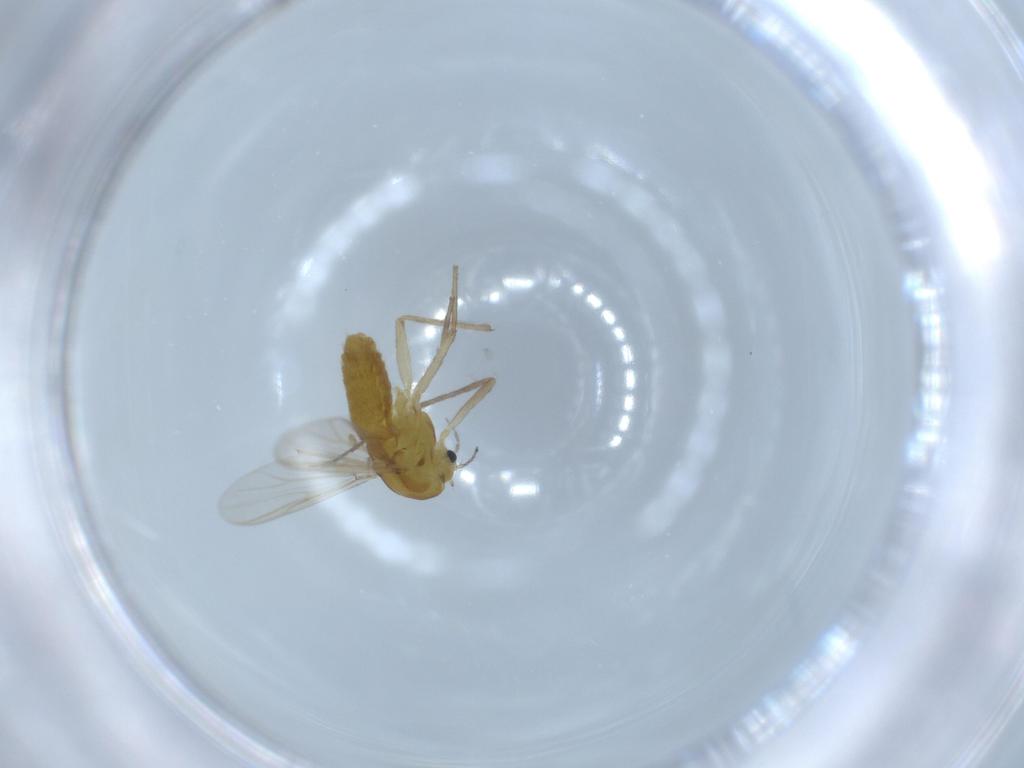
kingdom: Animalia
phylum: Arthropoda
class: Insecta
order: Diptera
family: Chironomidae
